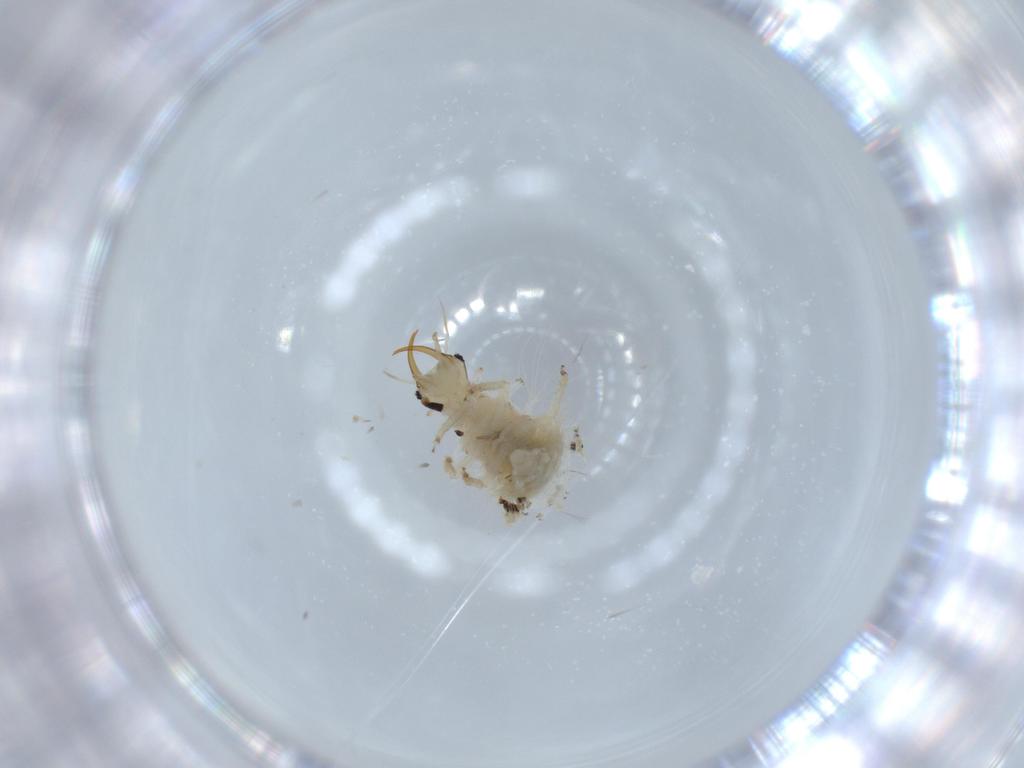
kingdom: Animalia
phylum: Arthropoda
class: Insecta
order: Neuroptera
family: Chrysopidae
